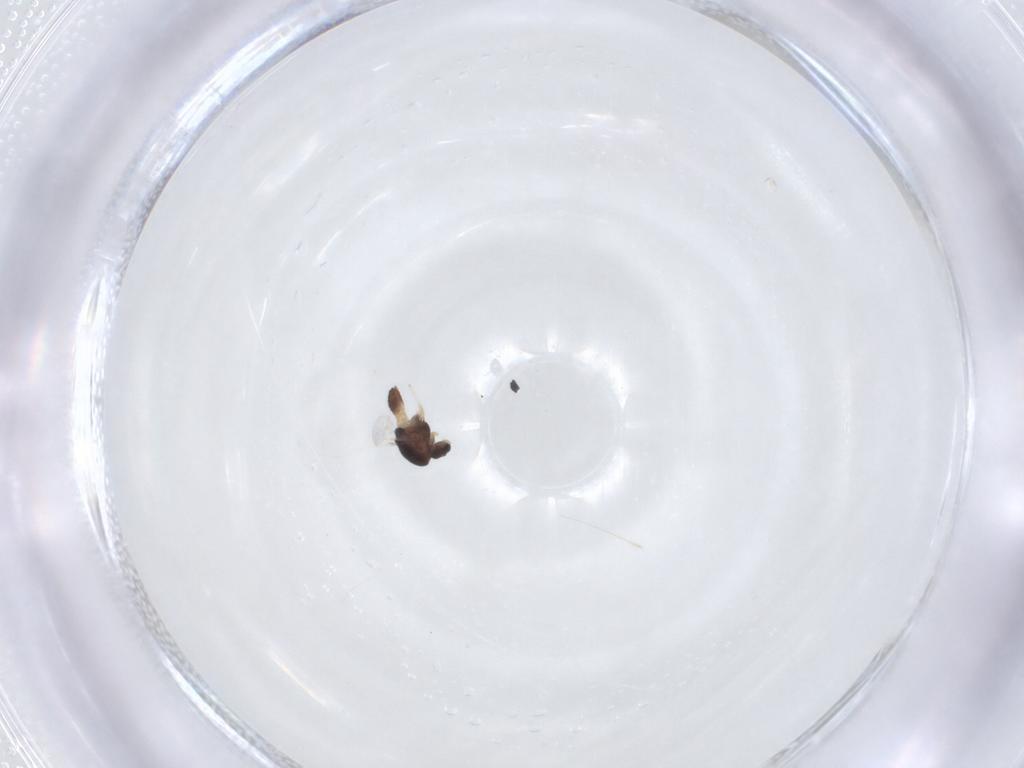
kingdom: Animalia
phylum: Arthropoda
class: Insecta
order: Diptera
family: Chironomidae
